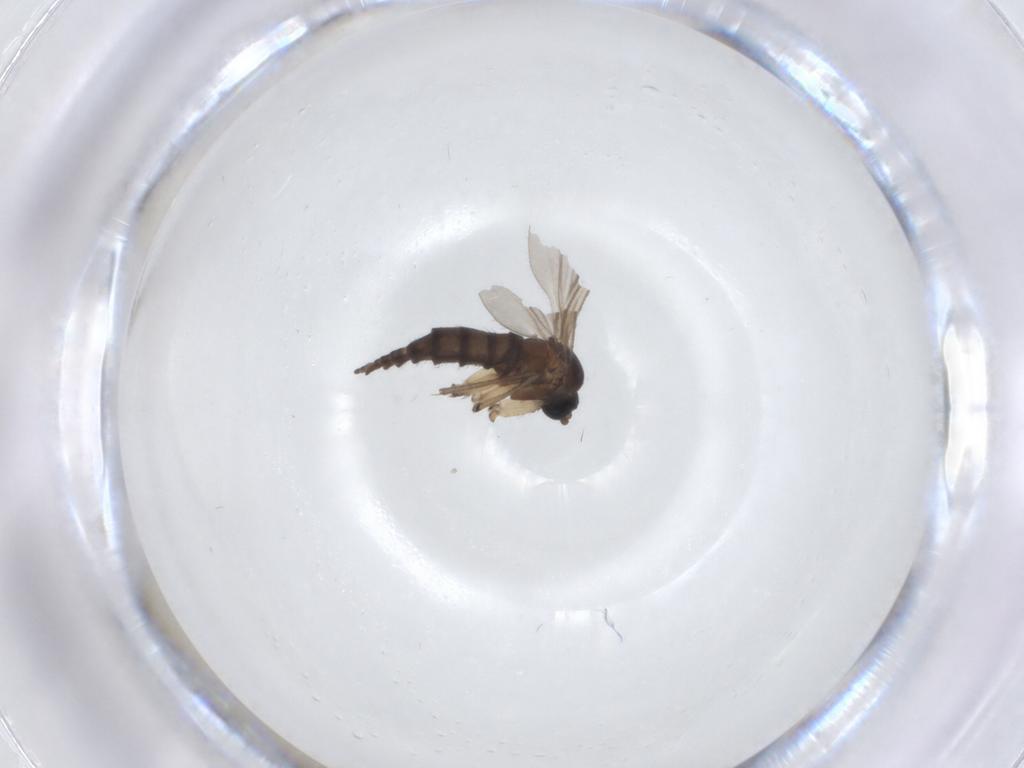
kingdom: Animalia
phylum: Arthropoda
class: Insecta
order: Diptera
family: Sciaridae
